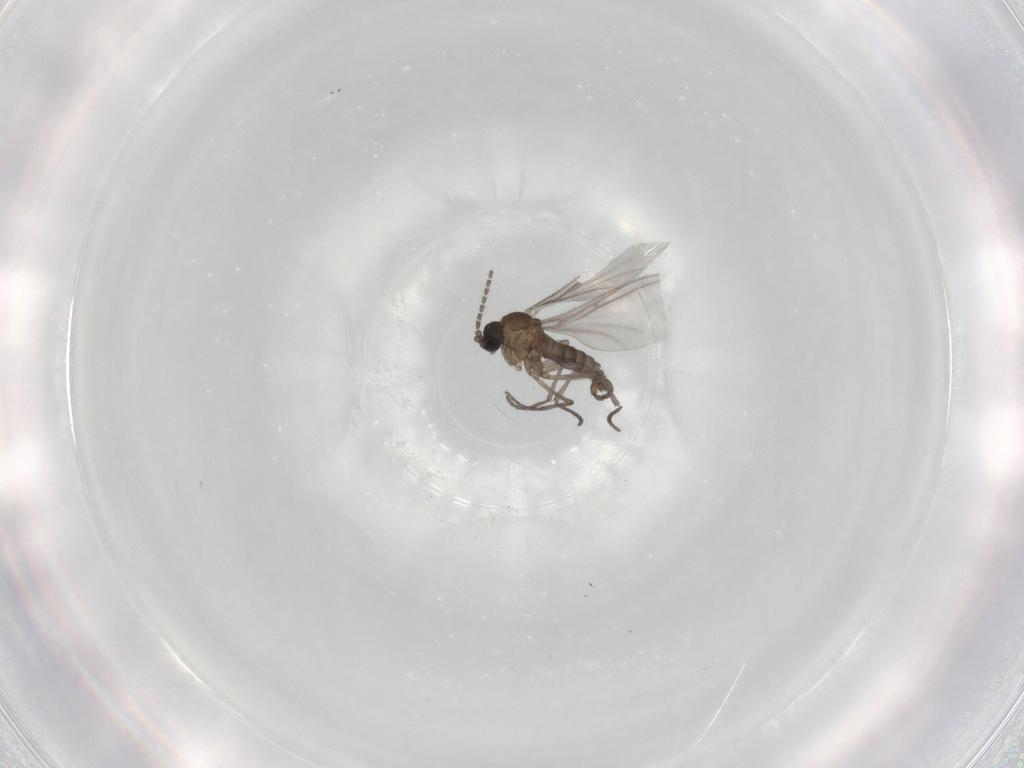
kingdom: Animalia
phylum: Arthropoda
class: Insecta
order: Diptera
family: Sciaridae
